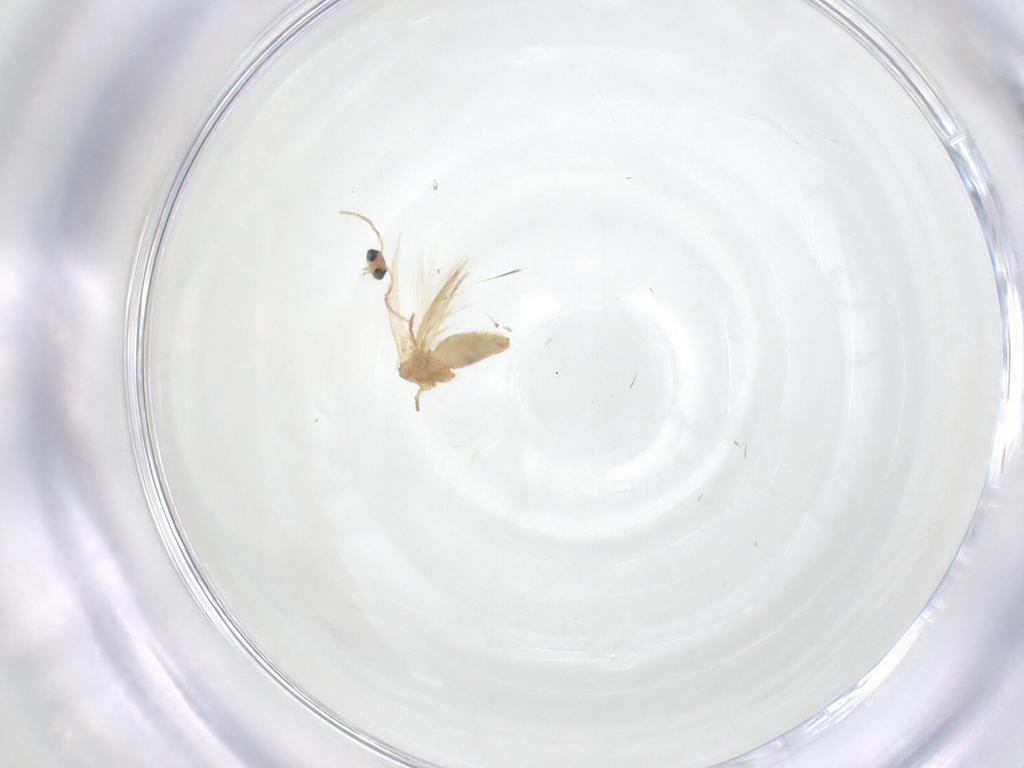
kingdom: Animalia
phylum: Arthropoda
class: Insecta
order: Lepidoptera
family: Crambidae
